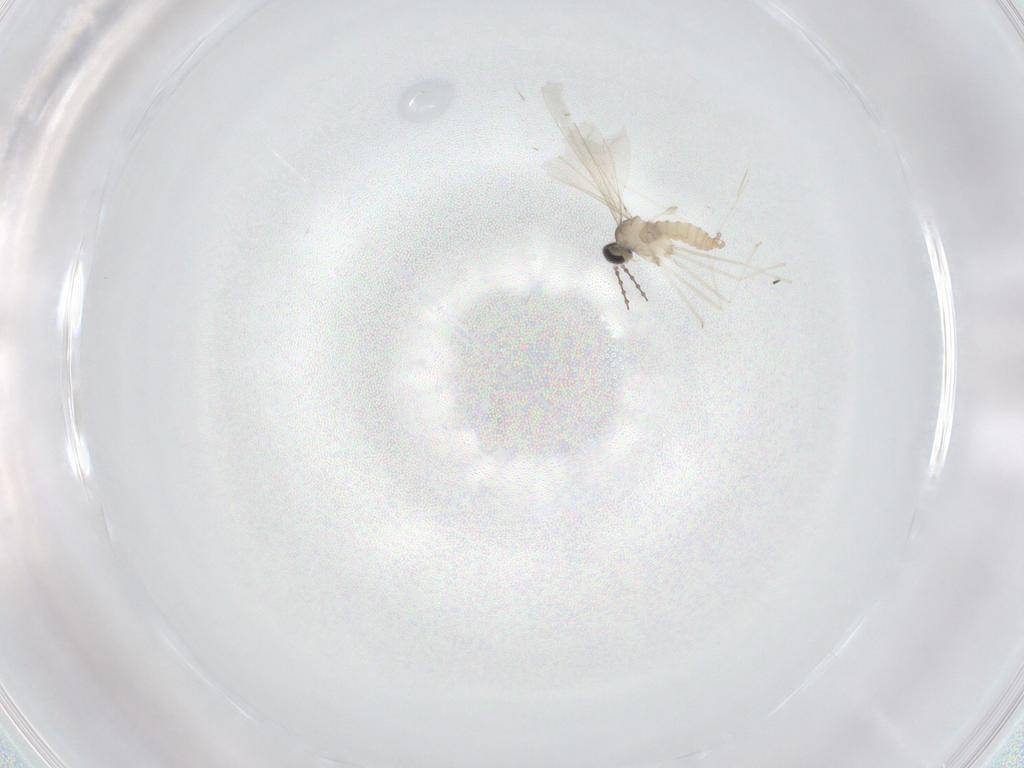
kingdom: Animalia
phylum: Arthropoda
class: Insecta
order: Diptera
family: Cecidomyiidae
